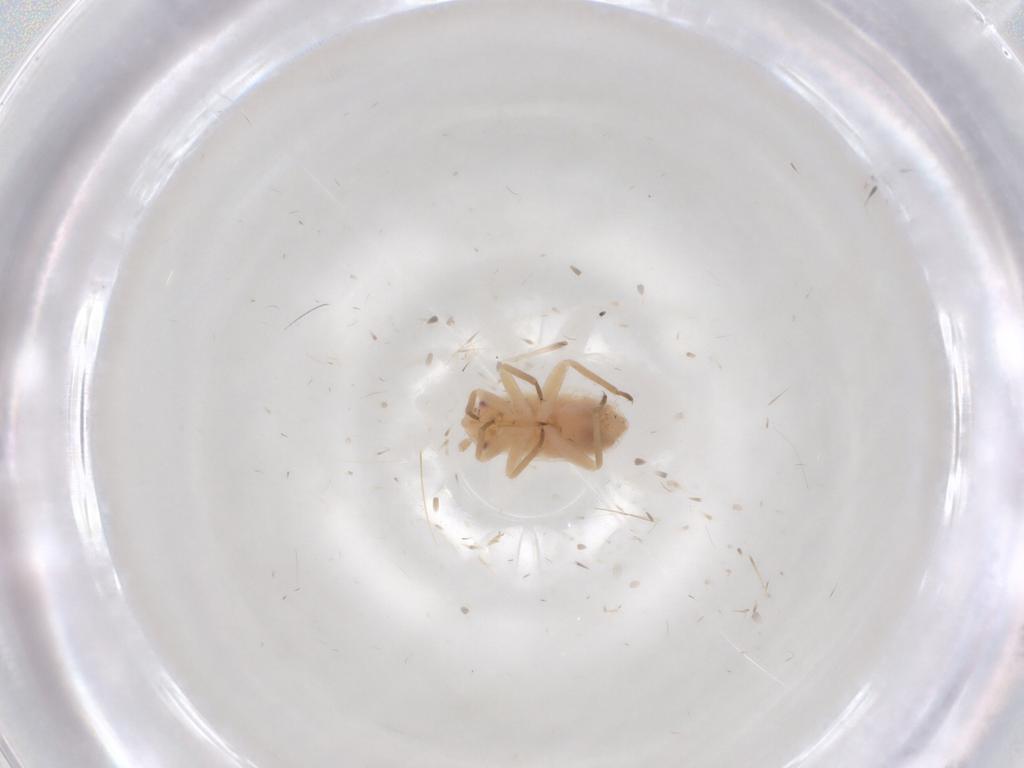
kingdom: Animalia
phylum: Arthropoda
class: Insecta
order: Hemiptera
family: Miridae
